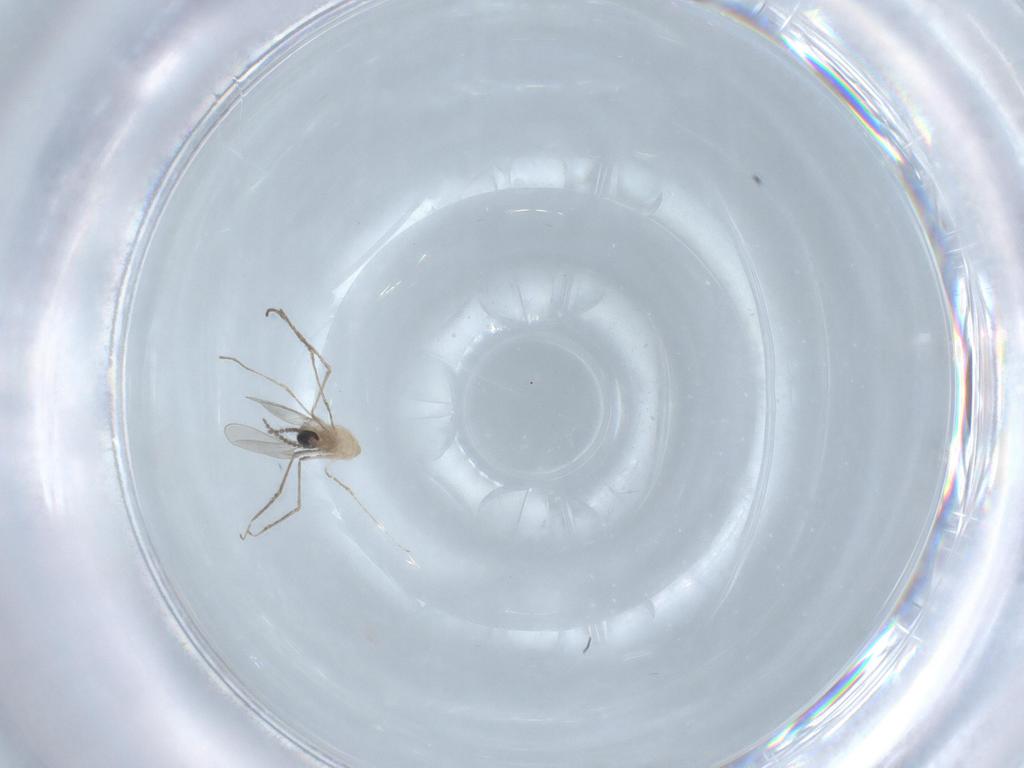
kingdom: Animalia
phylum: Arthropoda
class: Insecta
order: Diptera
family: Cecidomyiidae
